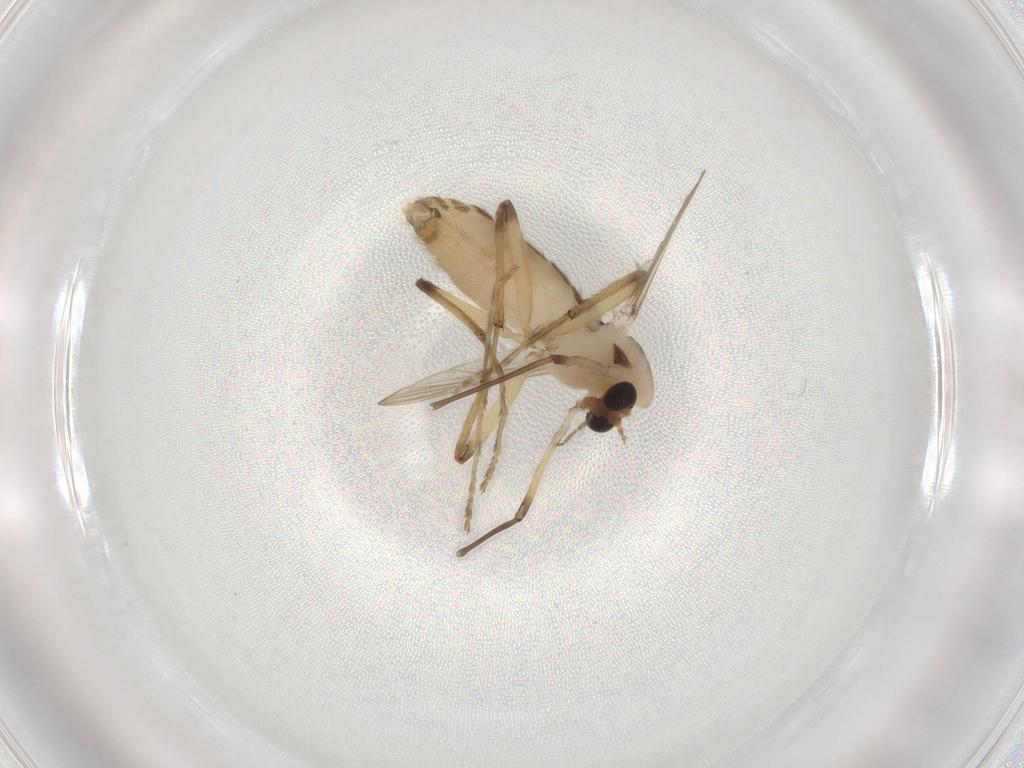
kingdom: Animalia
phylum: Arthropoda
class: Insecta
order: Diptera
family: Chironomidae
